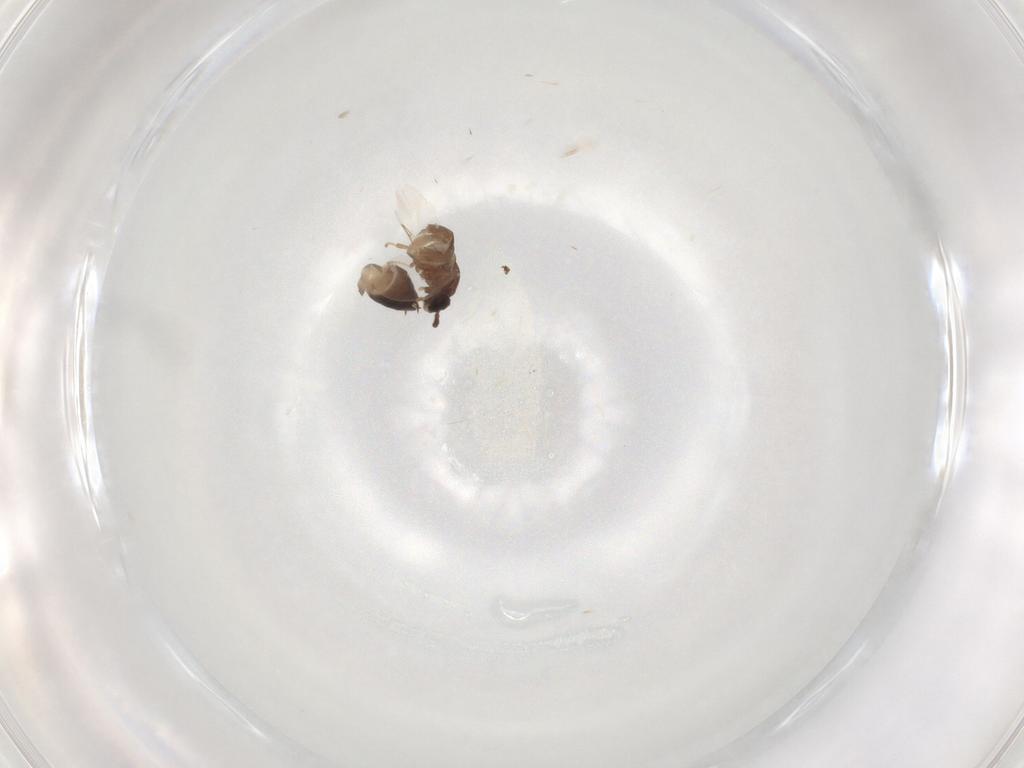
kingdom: Animalia
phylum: Arthropoda
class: Insecta
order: Diptera
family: Scatopsidae
